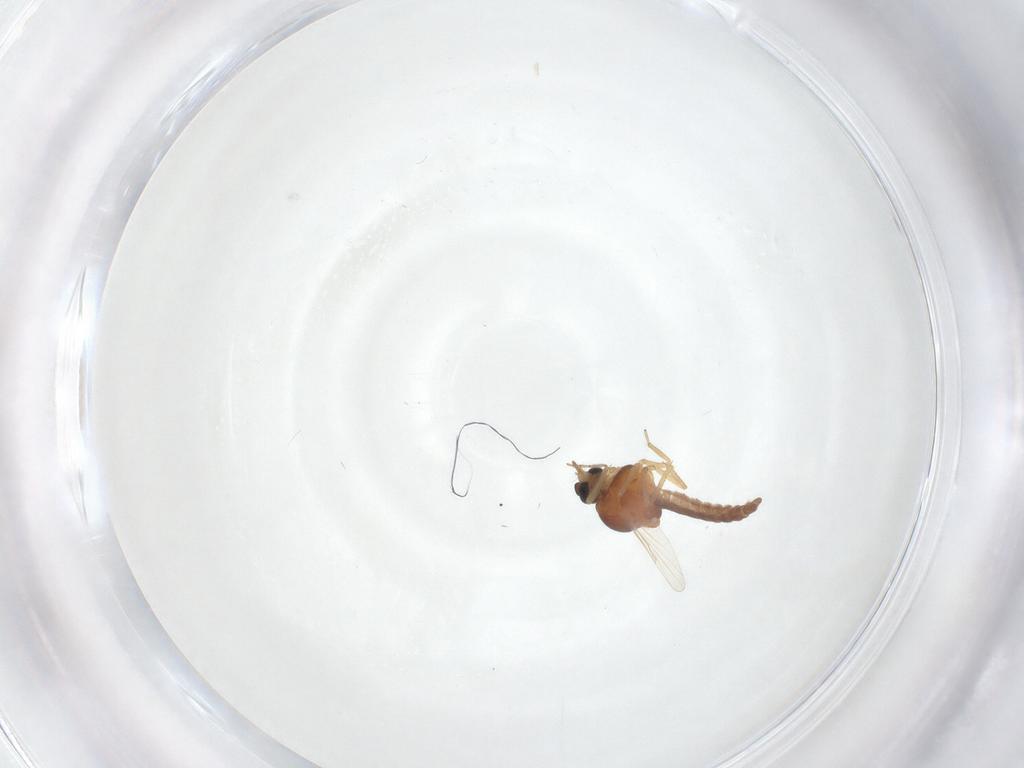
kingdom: Animalia
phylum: Arthropoda
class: Insecta
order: Diptera
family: Ceratopogonidae
